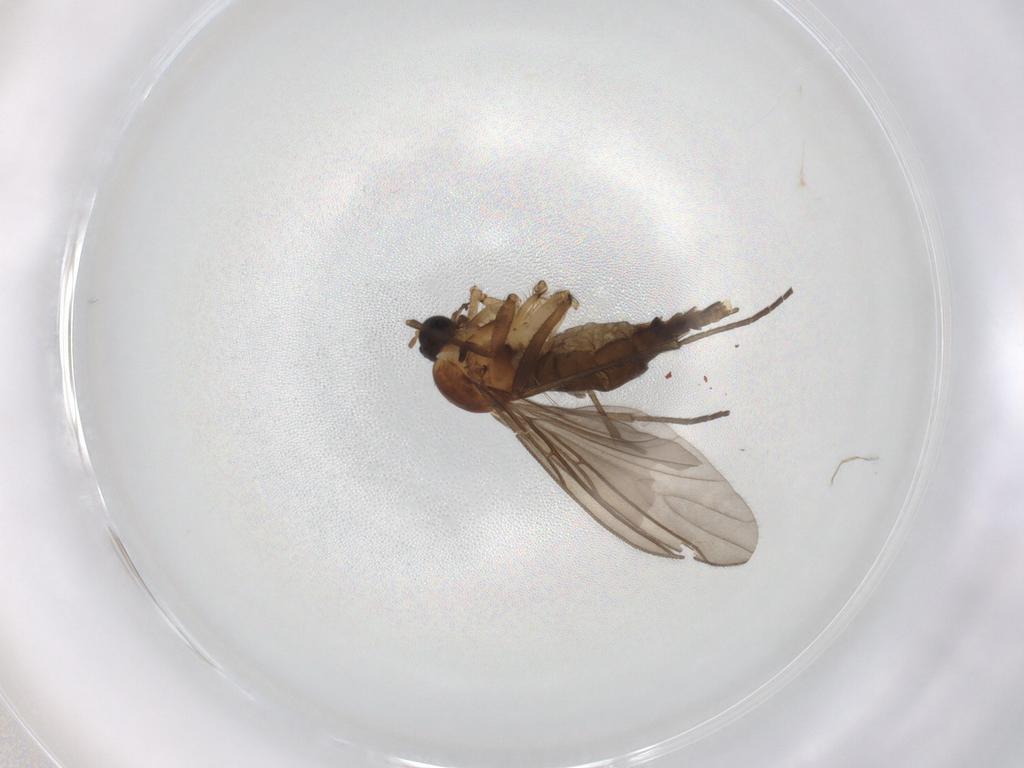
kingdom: Animalia
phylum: Arthropoda
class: Insecta
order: Diptera
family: Sciaridae
